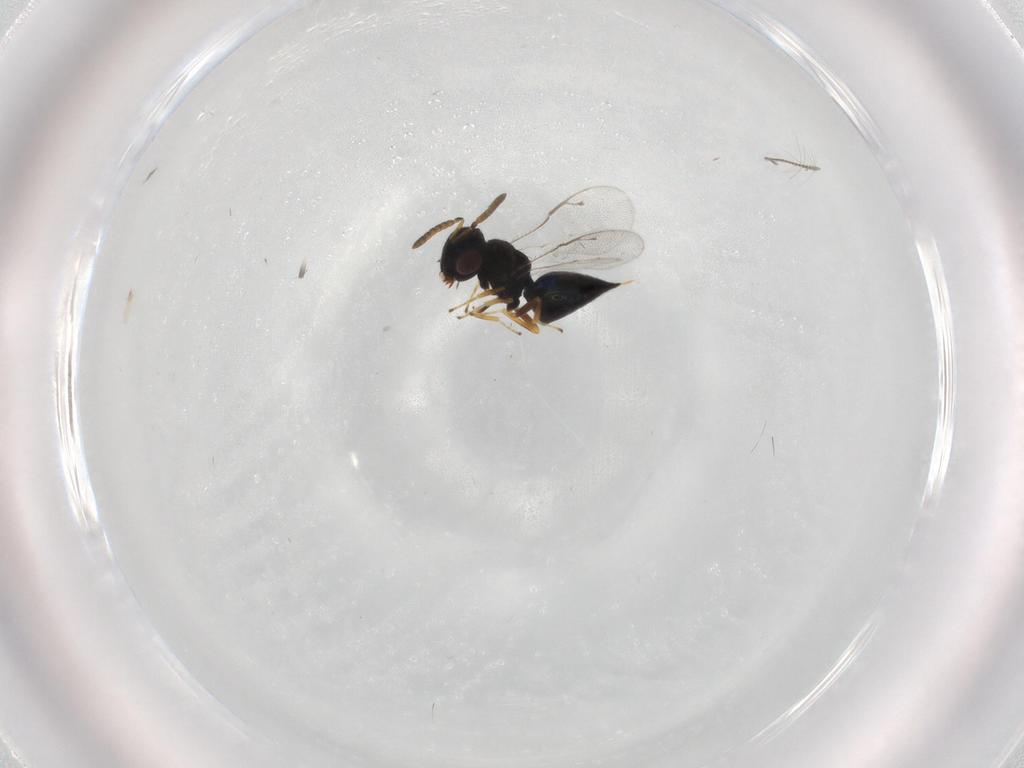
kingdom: Animalia
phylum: Arthropoda
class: Insecta
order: Hymenoptera
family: Pteromalidae
